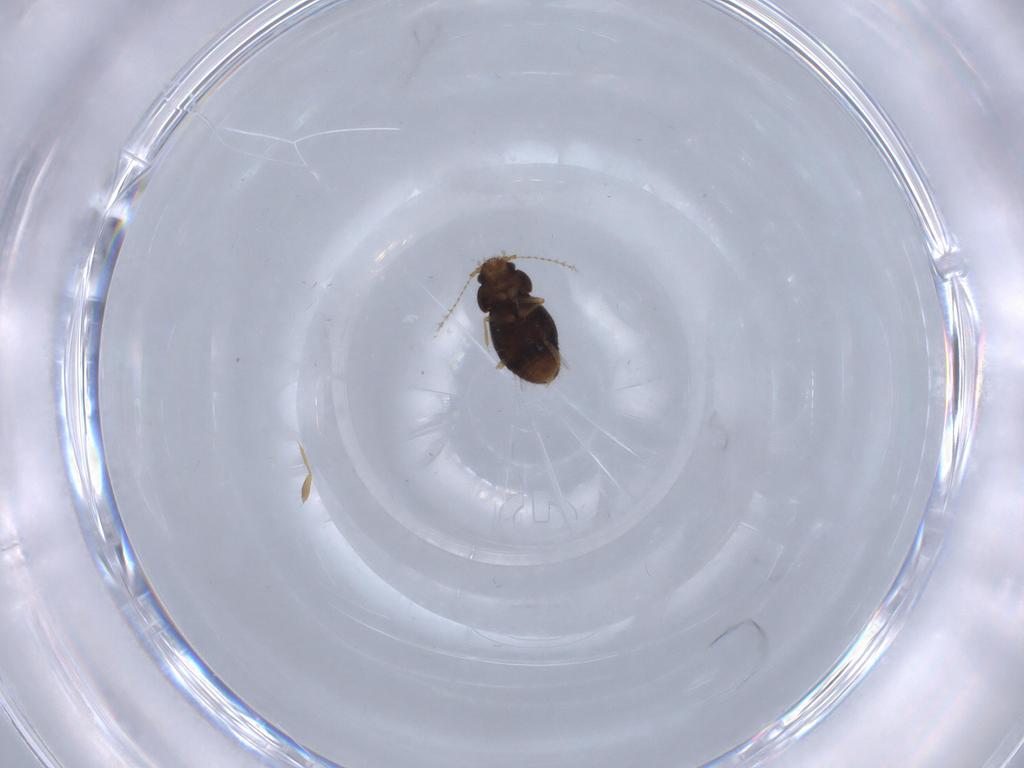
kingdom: Animalia
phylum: Arthropoda
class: Insecta
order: Coleoptera
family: Ptiliidae
